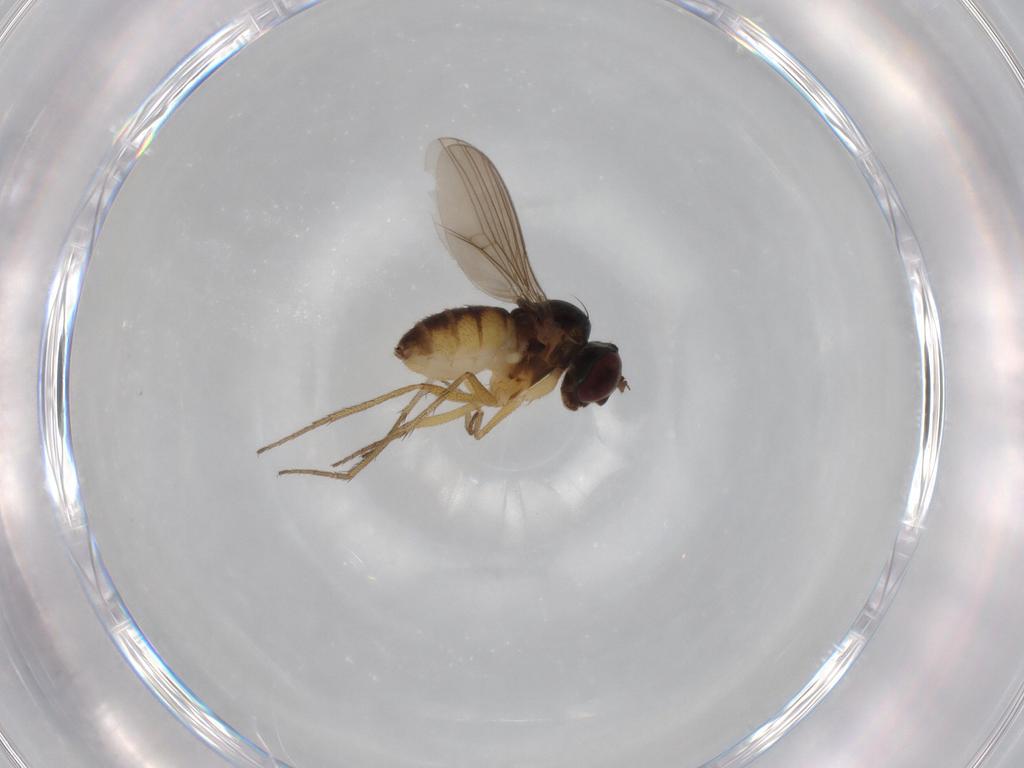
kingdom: Animalia
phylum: Arthropoda
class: Insecta
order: Diptera
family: Dolichopodidae
